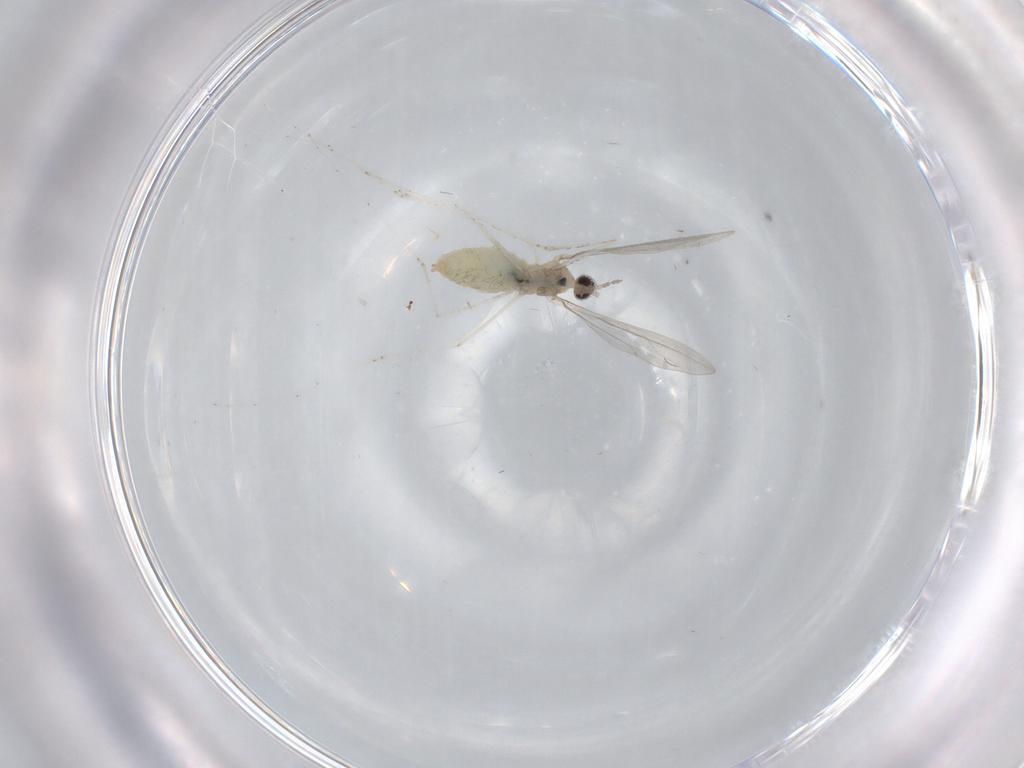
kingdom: Animalia
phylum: Arthropoda
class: Insecta
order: Diptera
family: Cecidomyiidae
